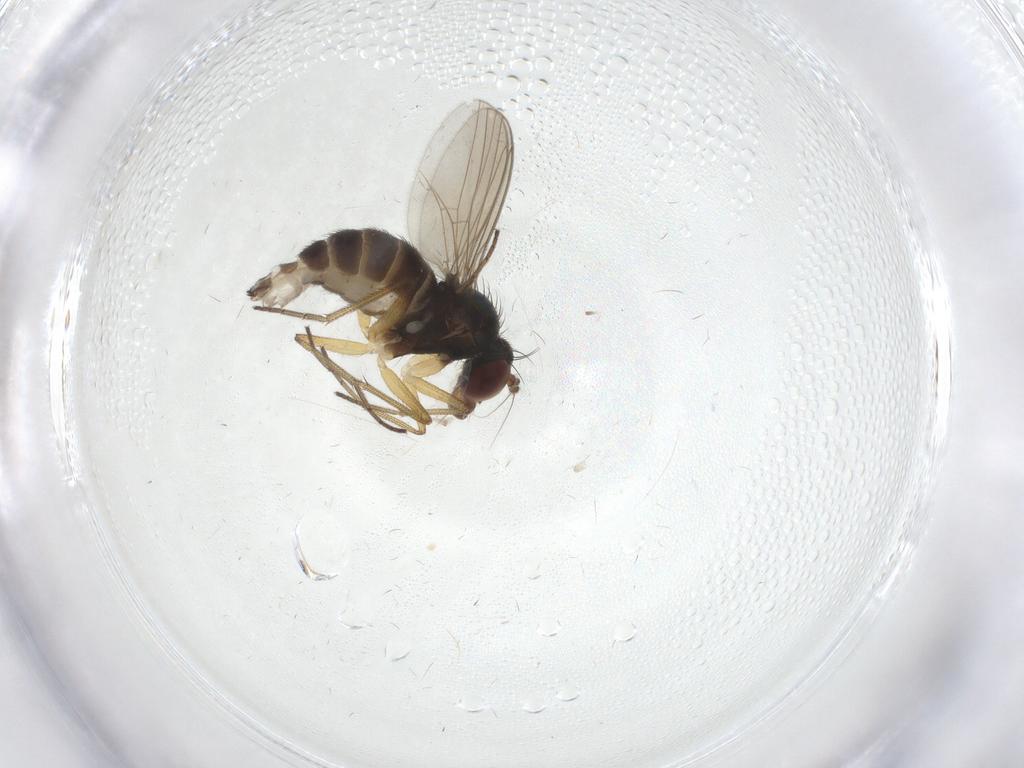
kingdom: Animalia
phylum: Arthropoda
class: Insecta
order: Diptera
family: Dolichopodidae
